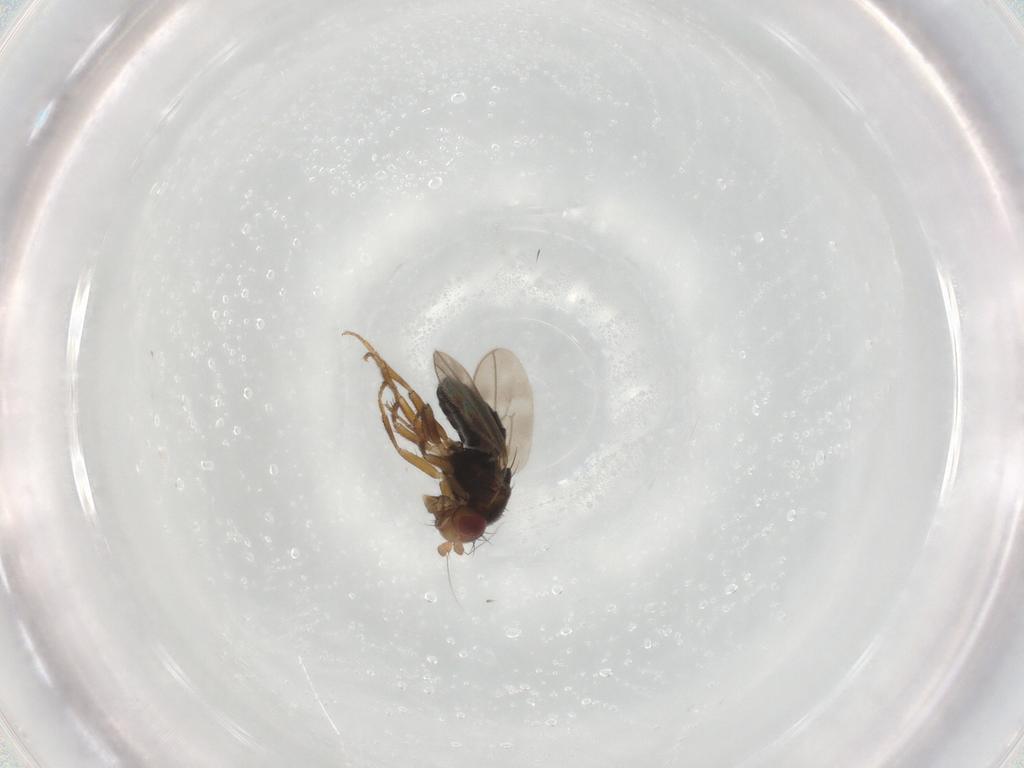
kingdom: Animalia
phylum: Arthropoda
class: Insecta
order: Diptera
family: Sphaeroceridae
